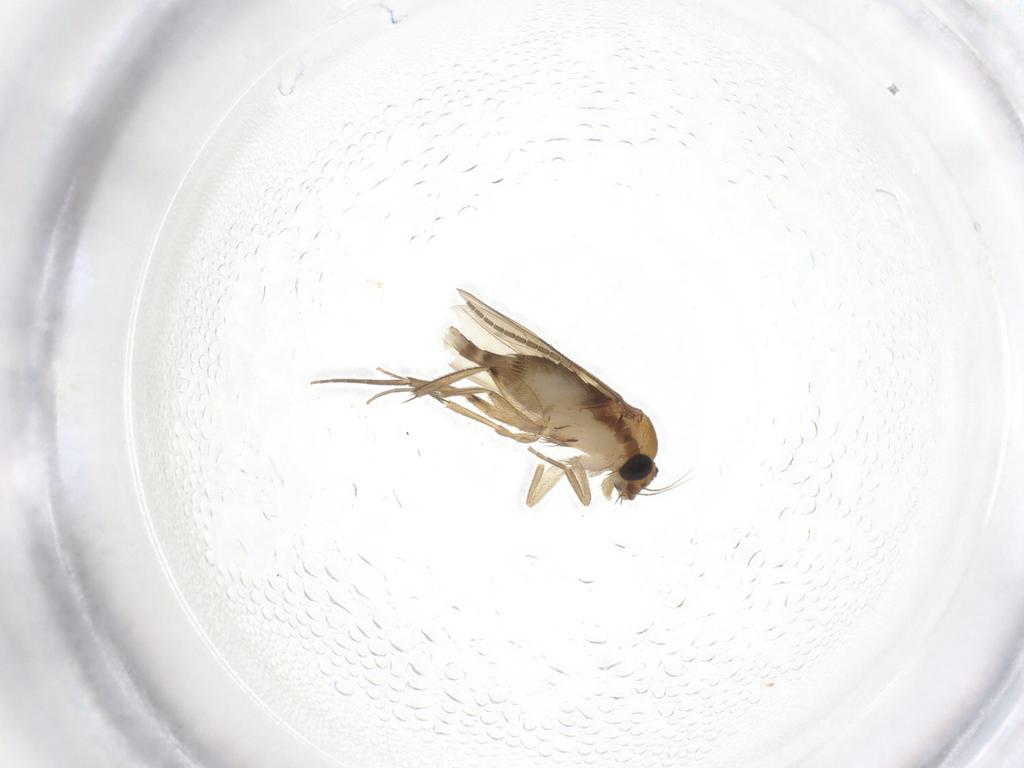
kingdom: Animalia
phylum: Arthropoda
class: Insecta
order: Diptera
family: Phoridae
